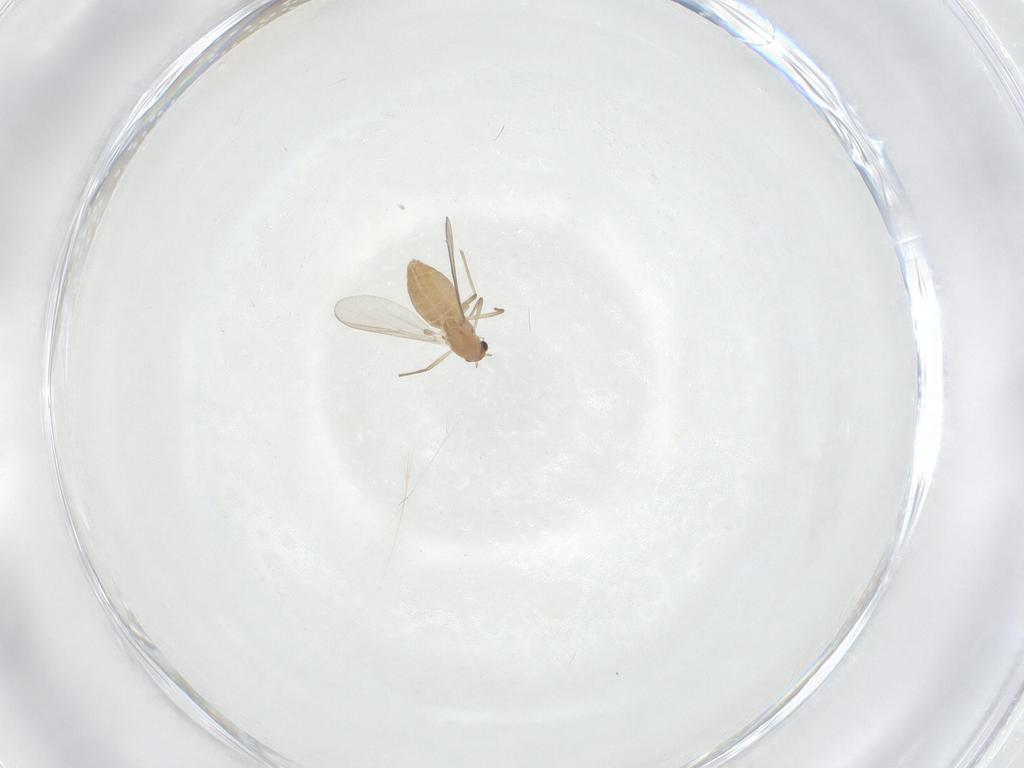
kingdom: Animalia
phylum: Arthropoda
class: Insecta
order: Diptera
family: Chironomidae
